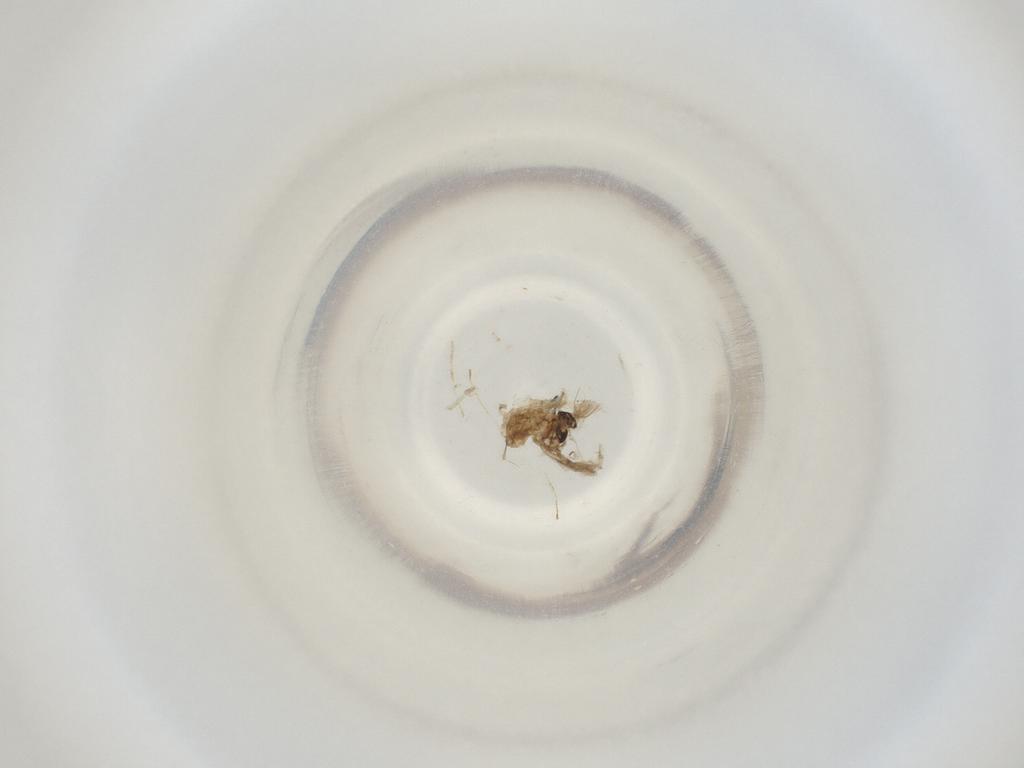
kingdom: Animalia
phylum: Arthropoda
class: Insecta
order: Diptera
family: Cecidomyiidae
